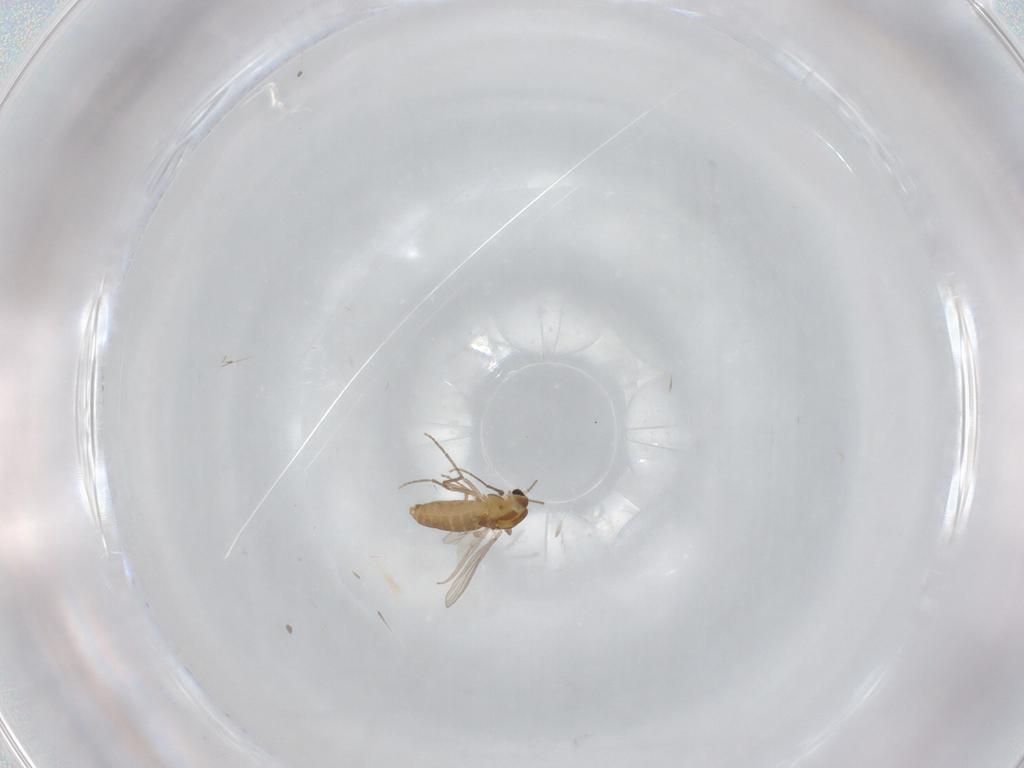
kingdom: Animalia
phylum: Arthropoda
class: Insecta
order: Diptera
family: Chironomidae
